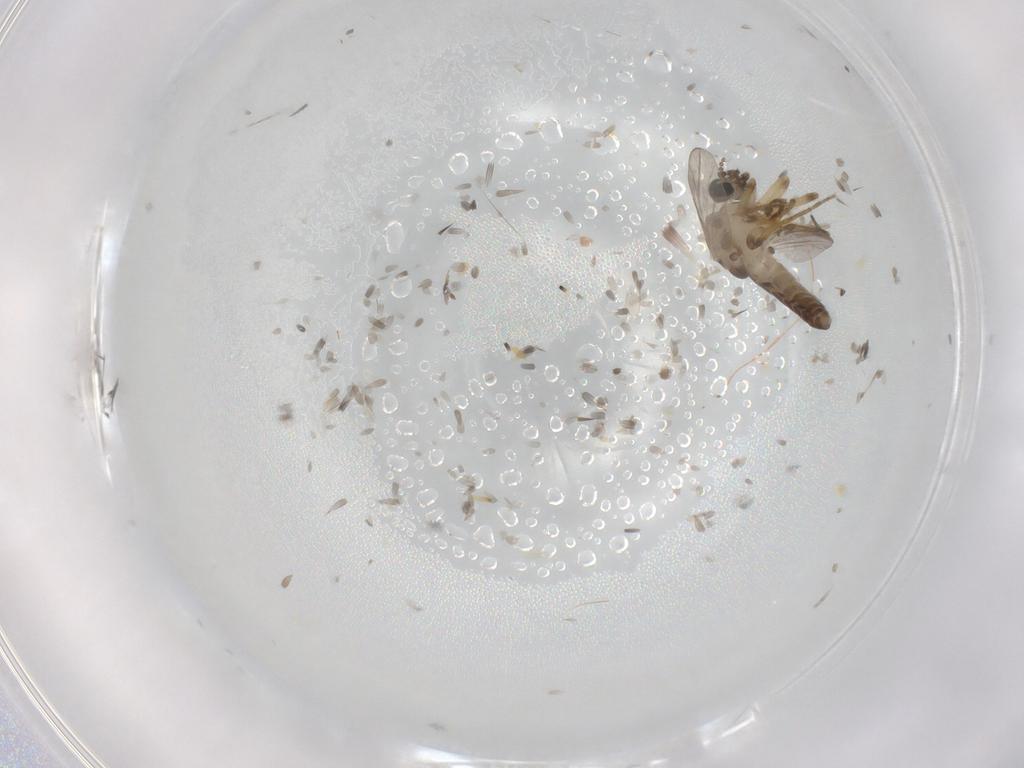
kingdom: Animalia
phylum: Arthropoda
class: Insecta
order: Diptera
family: Ceratopogonidae
